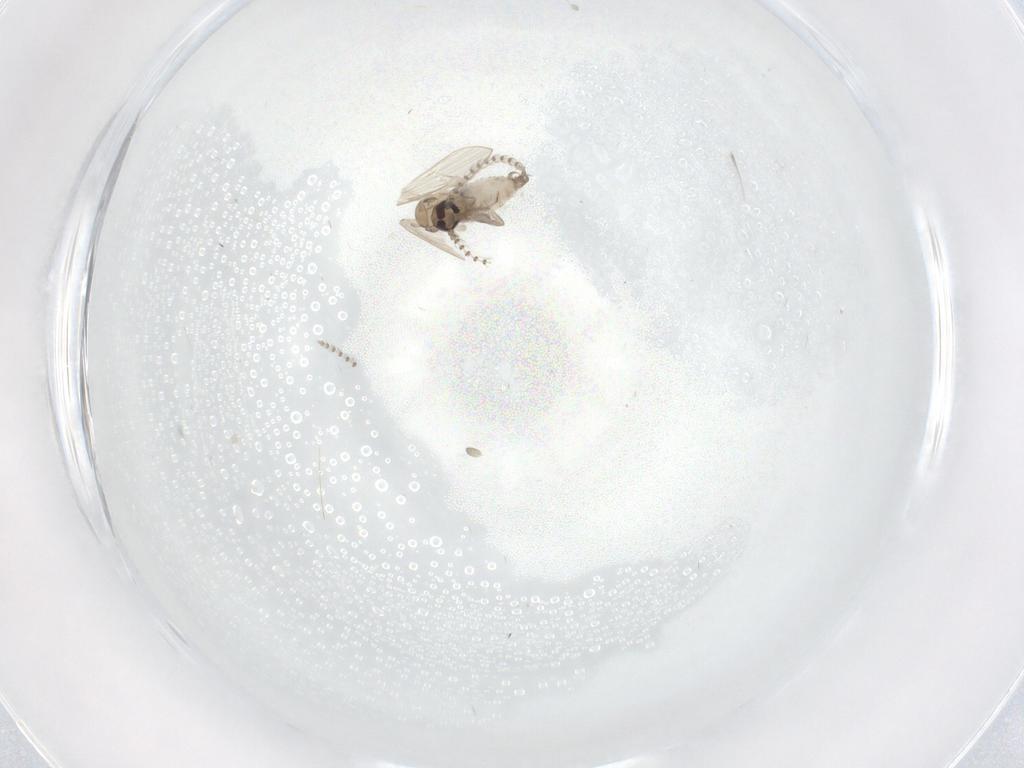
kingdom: Animalia
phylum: Arthropoda
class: Insecta
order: Diptera
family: Psychodidae
